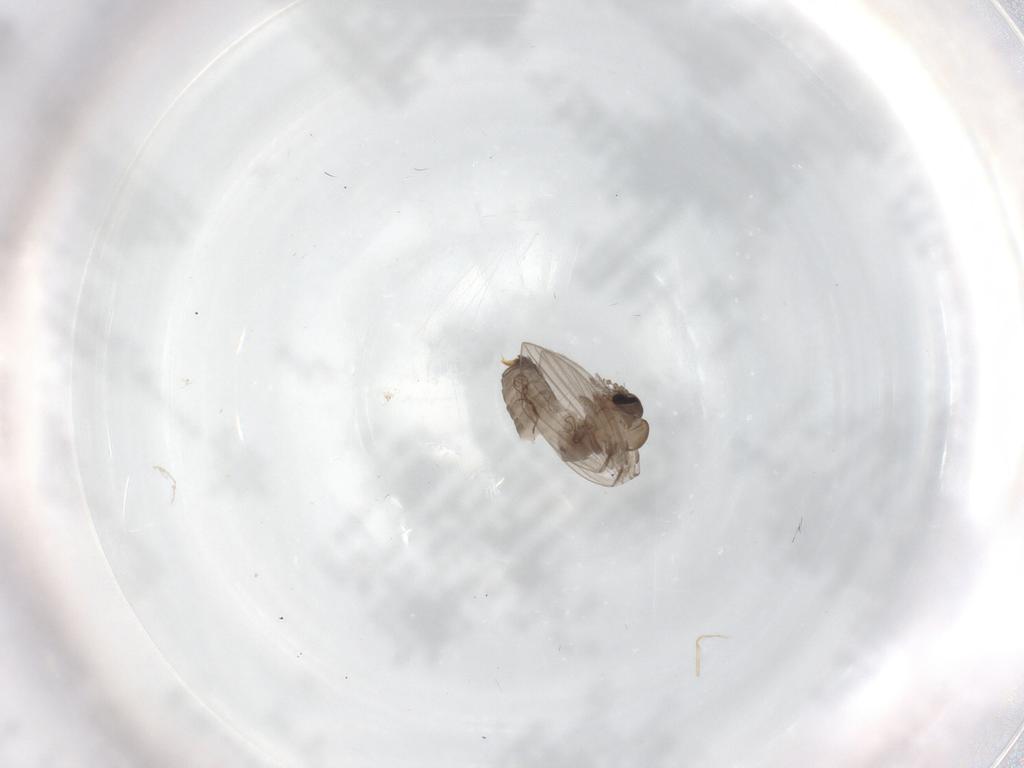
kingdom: Animalia
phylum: Arthropoda
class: Insecta
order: Diptera
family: Psychodidae
